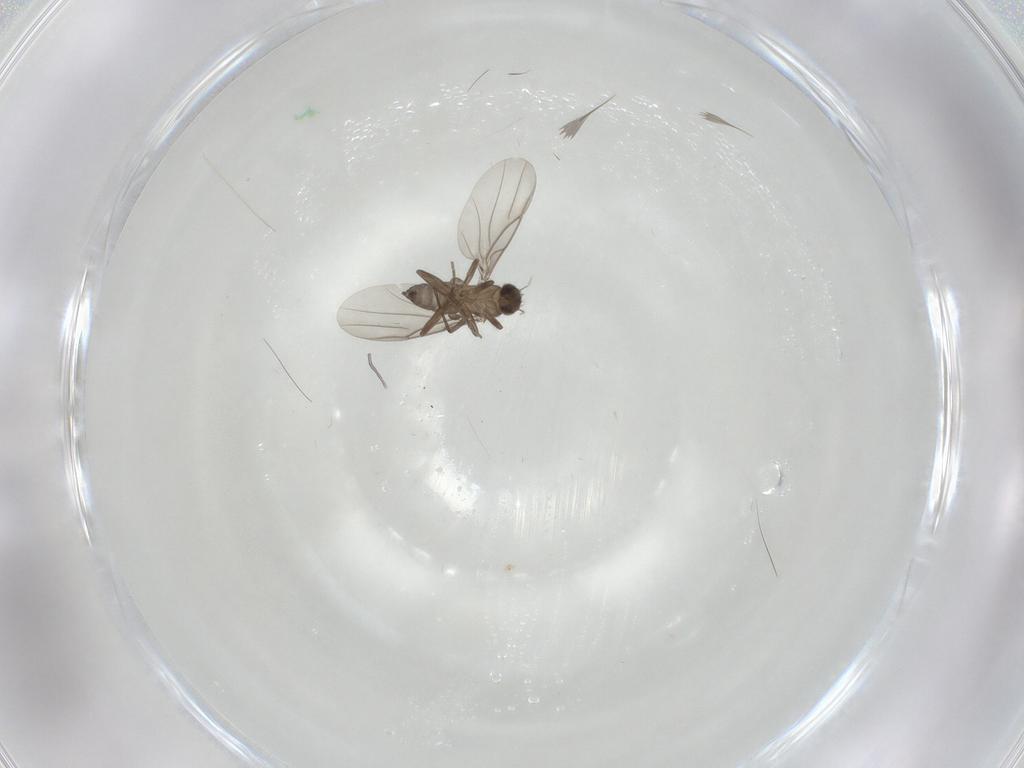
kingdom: Animalia
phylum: Arthropoda
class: Insecta
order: Diptera
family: Phoridae
